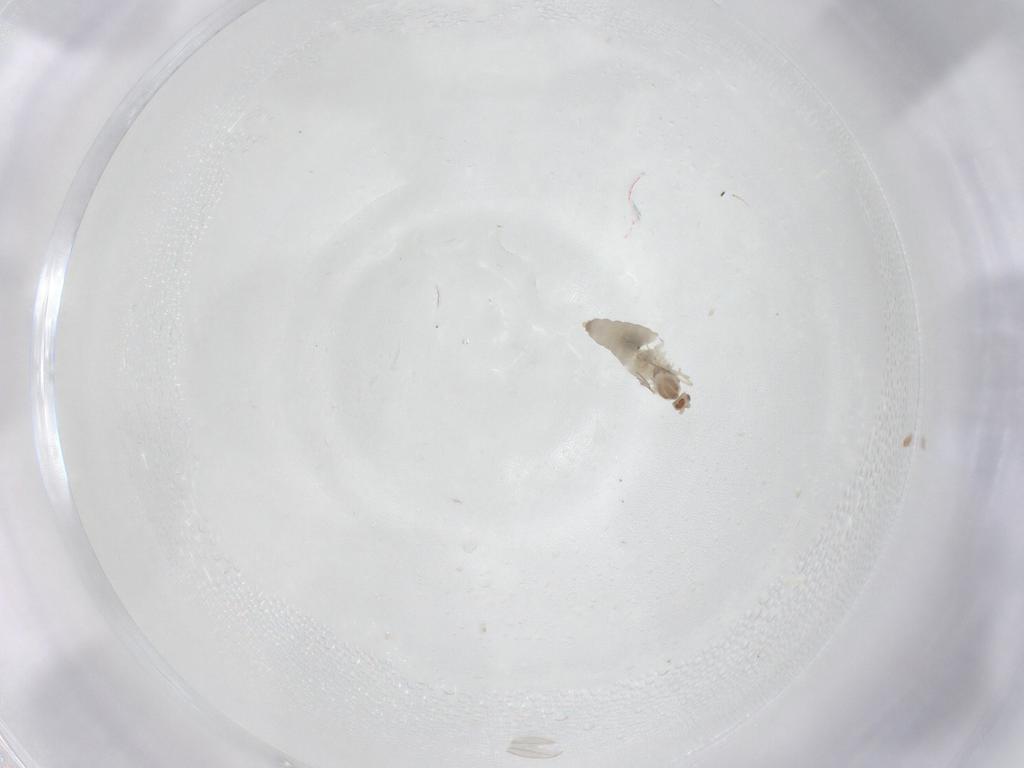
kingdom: Animalia
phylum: Arthropoda
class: Insecta
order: Diptera
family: Cecidomyiidae
